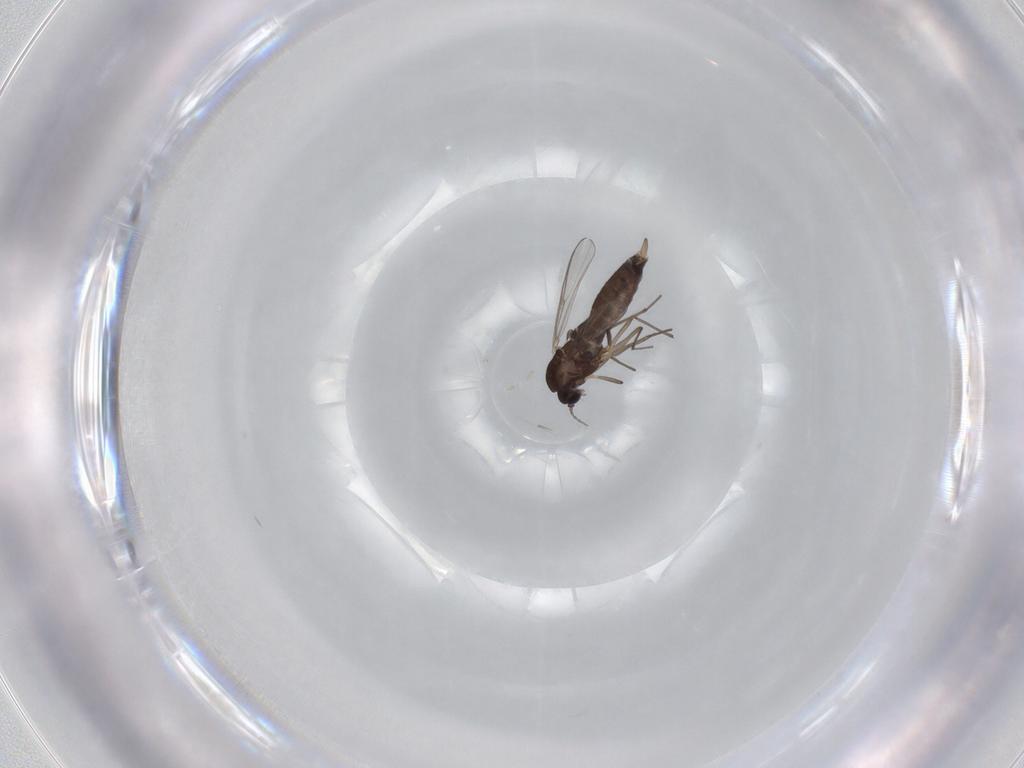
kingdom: Animalia
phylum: Arthropoda
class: Insecta
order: Diptera
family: Chironomidae
